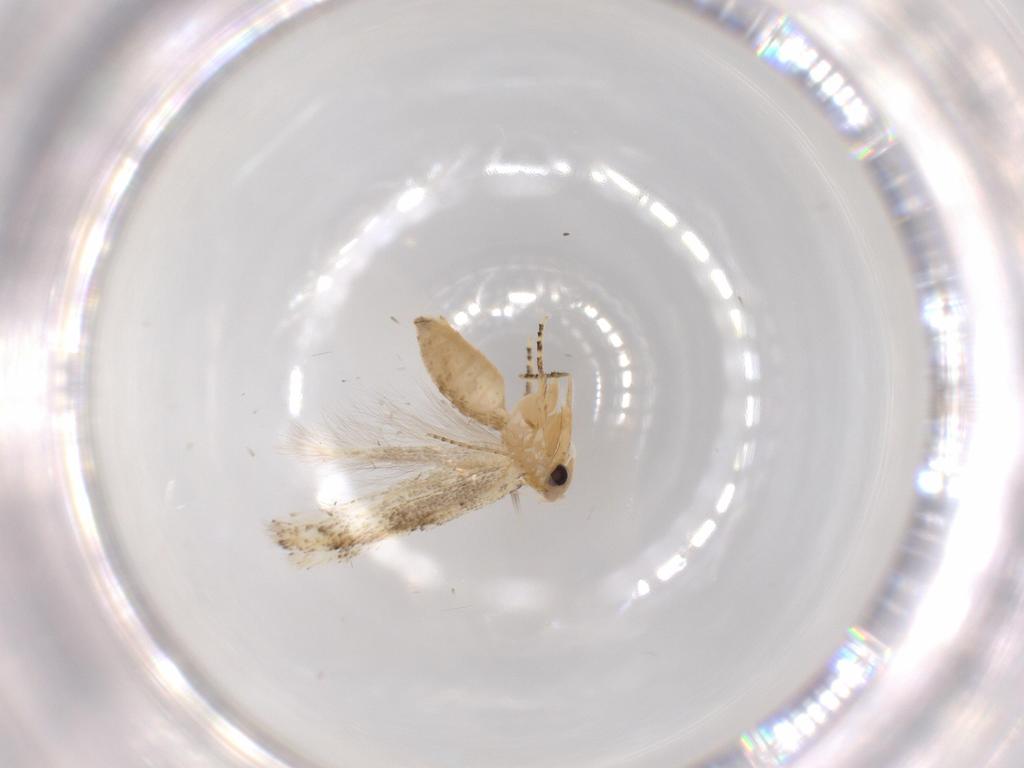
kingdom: Animalia
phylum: Arthropoda
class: Insecta
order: Lepidoptera
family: Bucculatricidae
